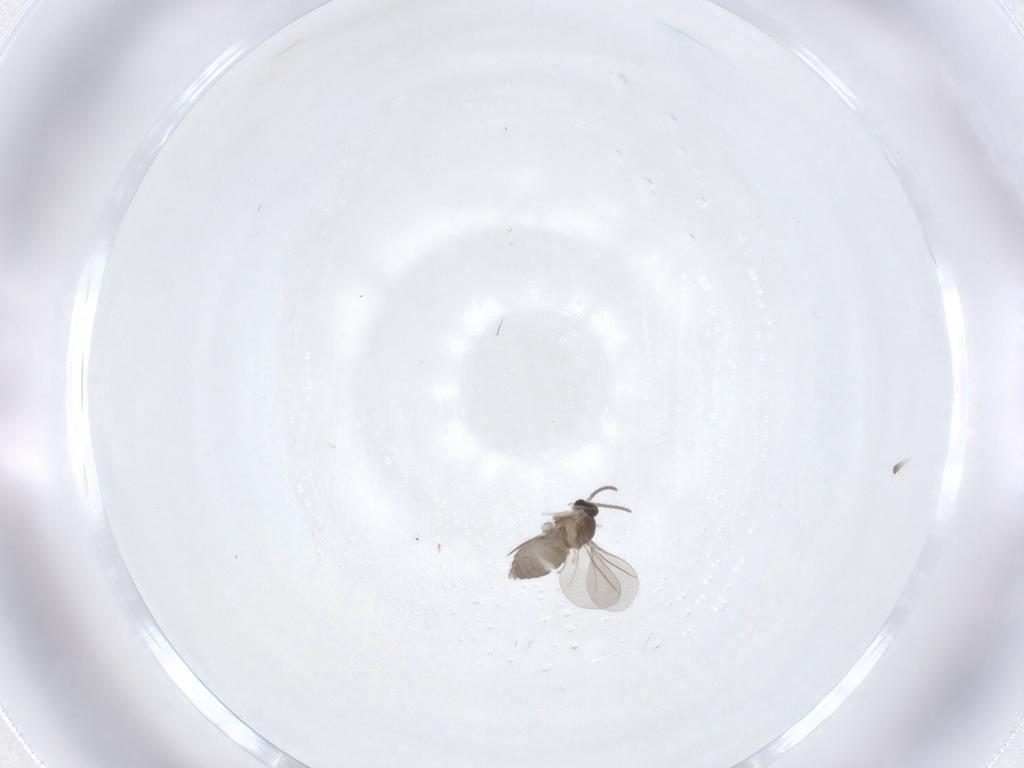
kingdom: Animalia
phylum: Arthropoda
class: Insecta
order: Diptera
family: Cecidomyiidae
